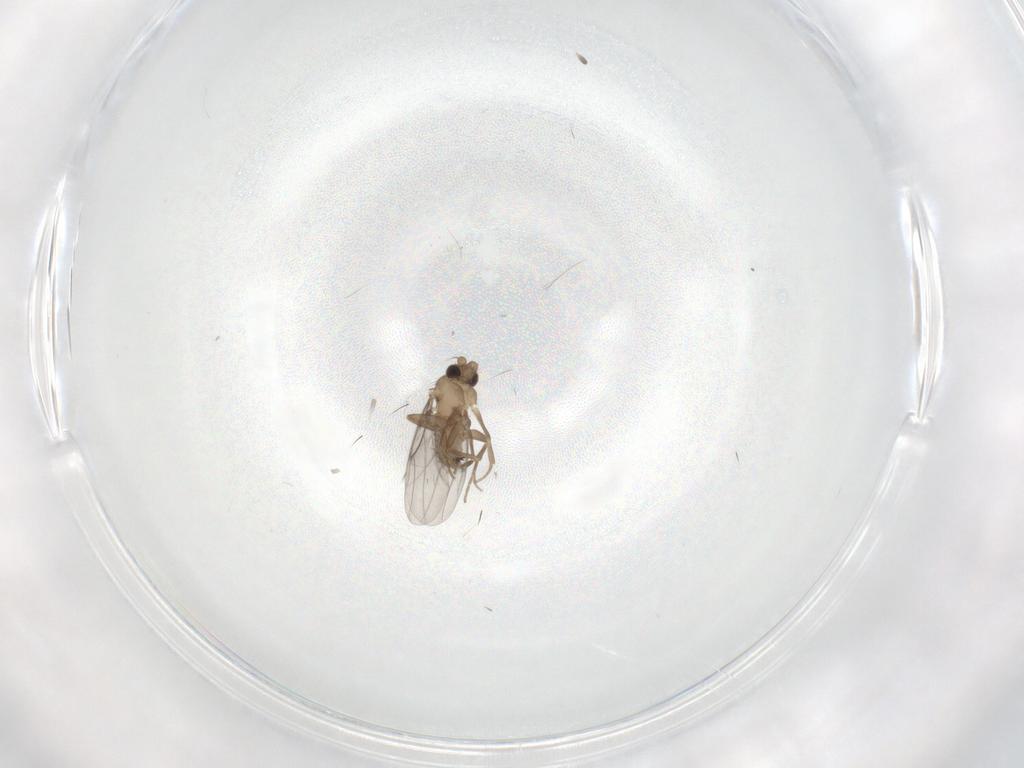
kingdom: Animalia
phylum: Arthropoda
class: Insecta
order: Diptera
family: Cecidomyiidae
